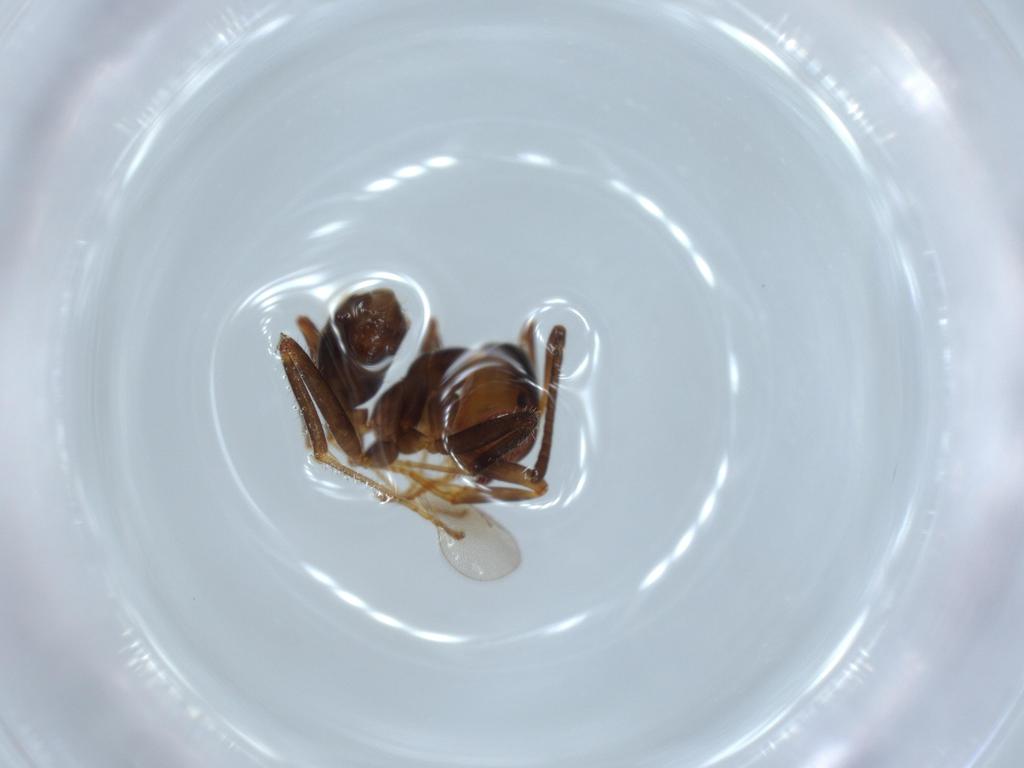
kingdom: Animalia
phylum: Arthropoda
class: Insecta
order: Hymenoptera
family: Formicidae
